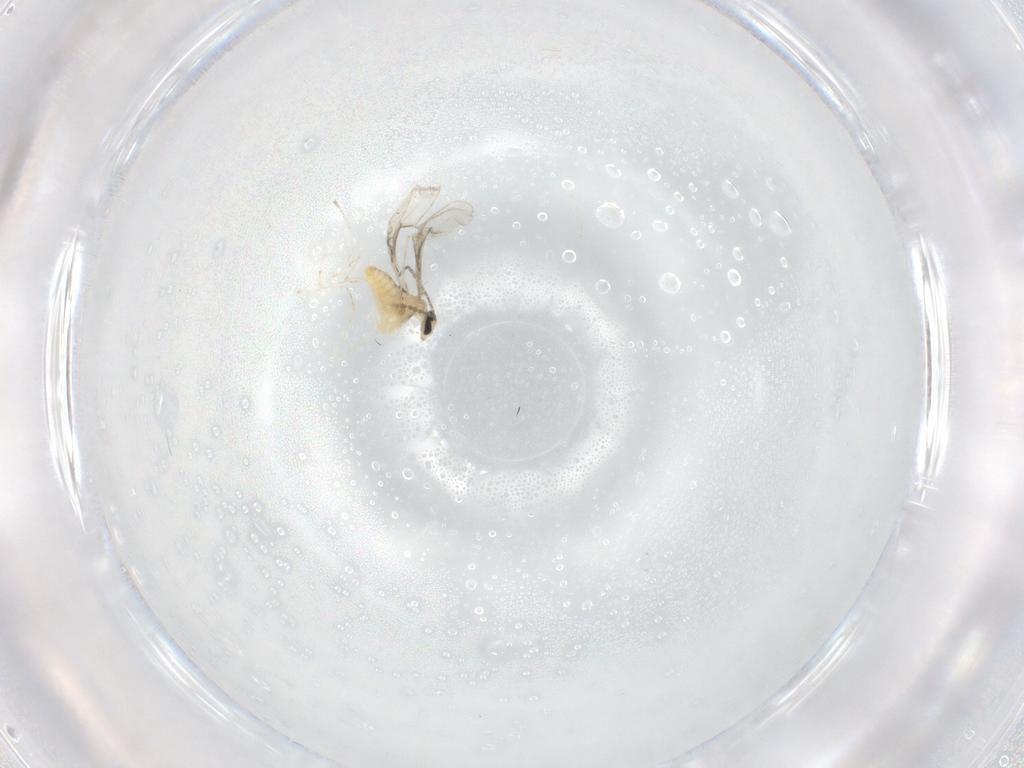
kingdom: Animalia
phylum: Arthropoda
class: Insecta
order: Diptera
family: Cecidomyiidae
